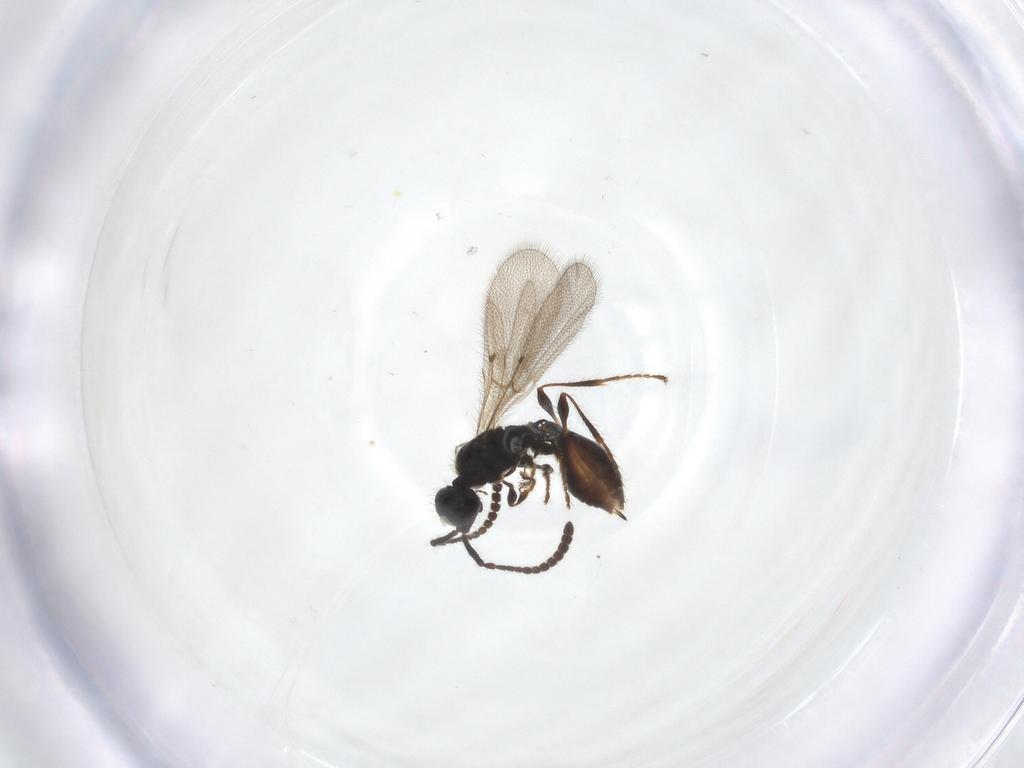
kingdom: Animalia
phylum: Arthropoda
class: Insecta
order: Hymenoptera
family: Diapriidae
